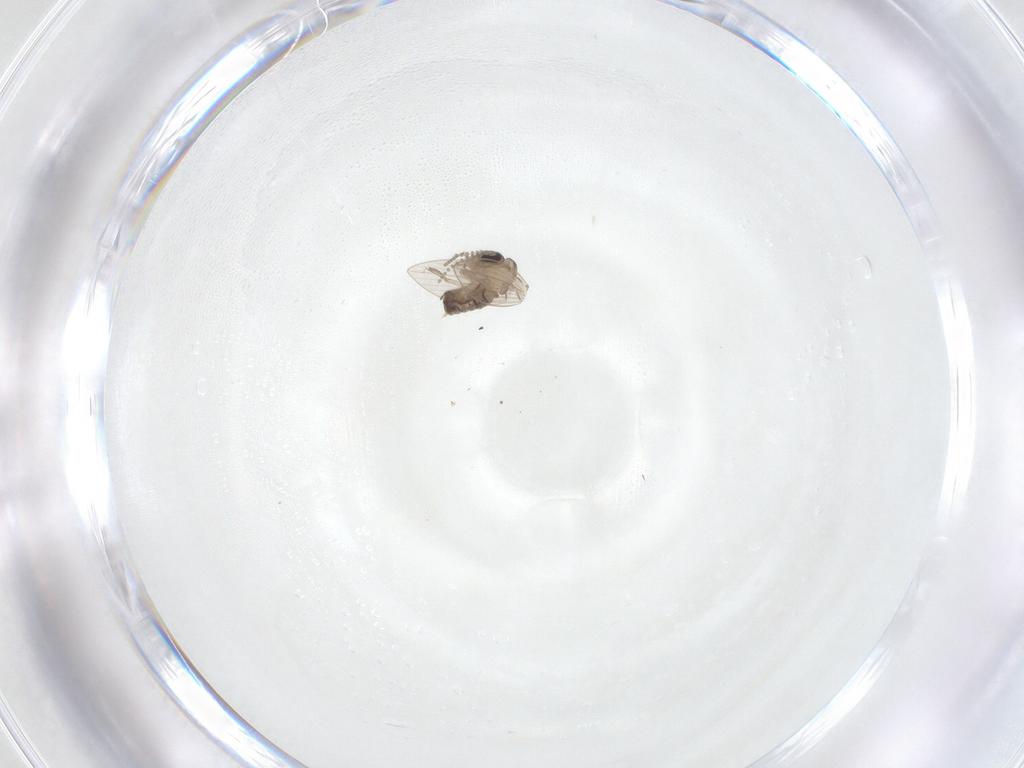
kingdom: Animalia
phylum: Arthropoda
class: Insecta
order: Diptera
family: Psychodidae
